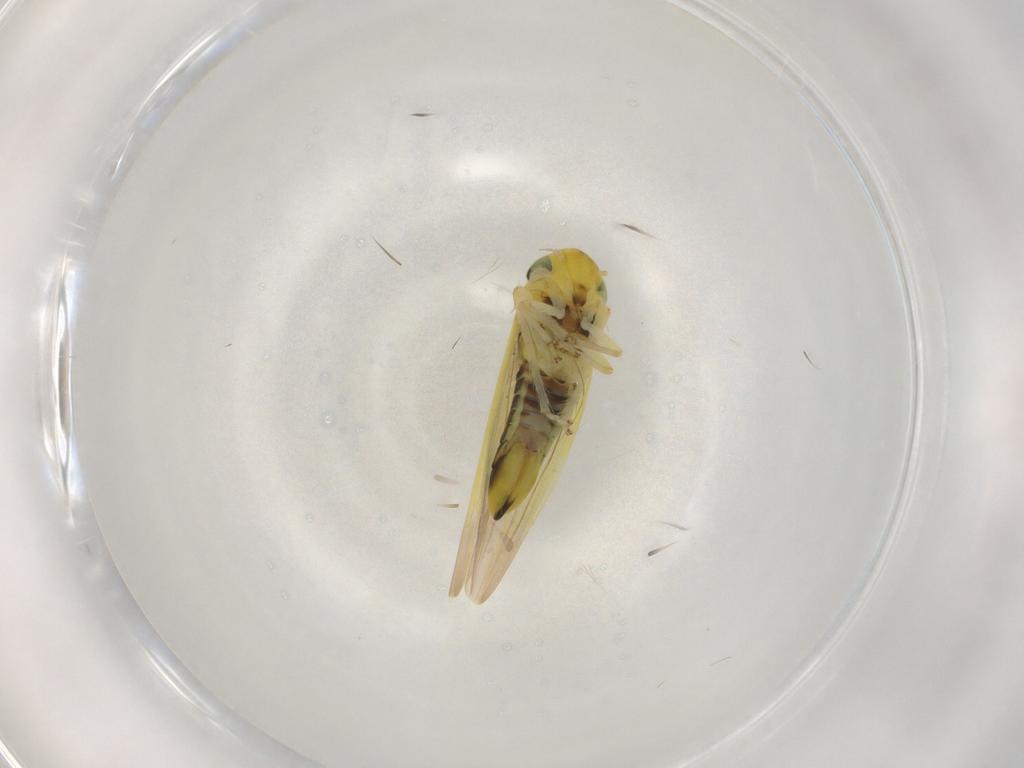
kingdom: Animalia
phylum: Arthropoda
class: Insecta
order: Hemiptera
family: Cicadellidae
